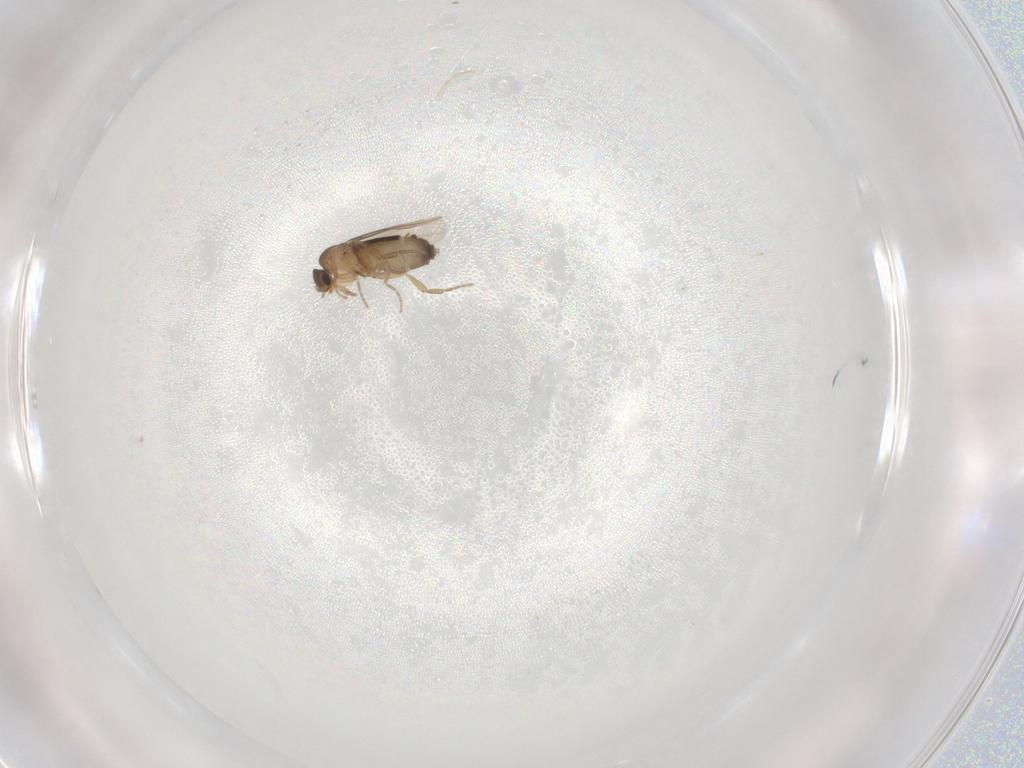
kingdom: Animalia
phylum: Arthropoda
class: Insecta
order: Diptera
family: Phoridae
